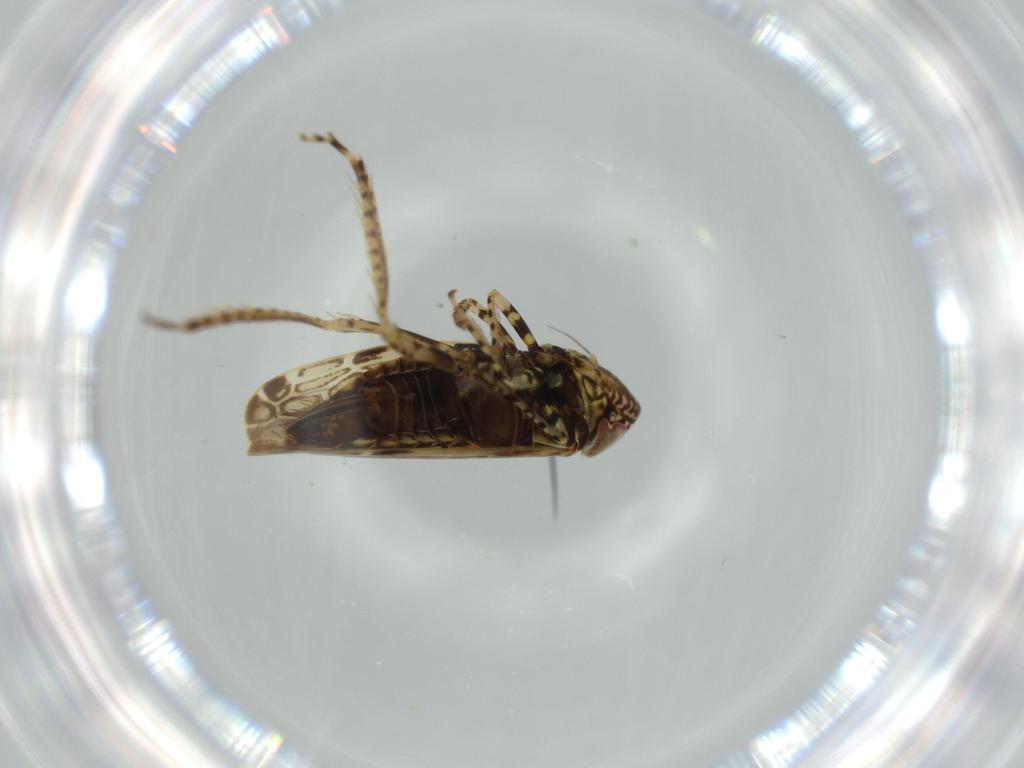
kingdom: Animalia
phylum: Arthropoda
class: Insecta
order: Hemiptera
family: Cicadellidae
